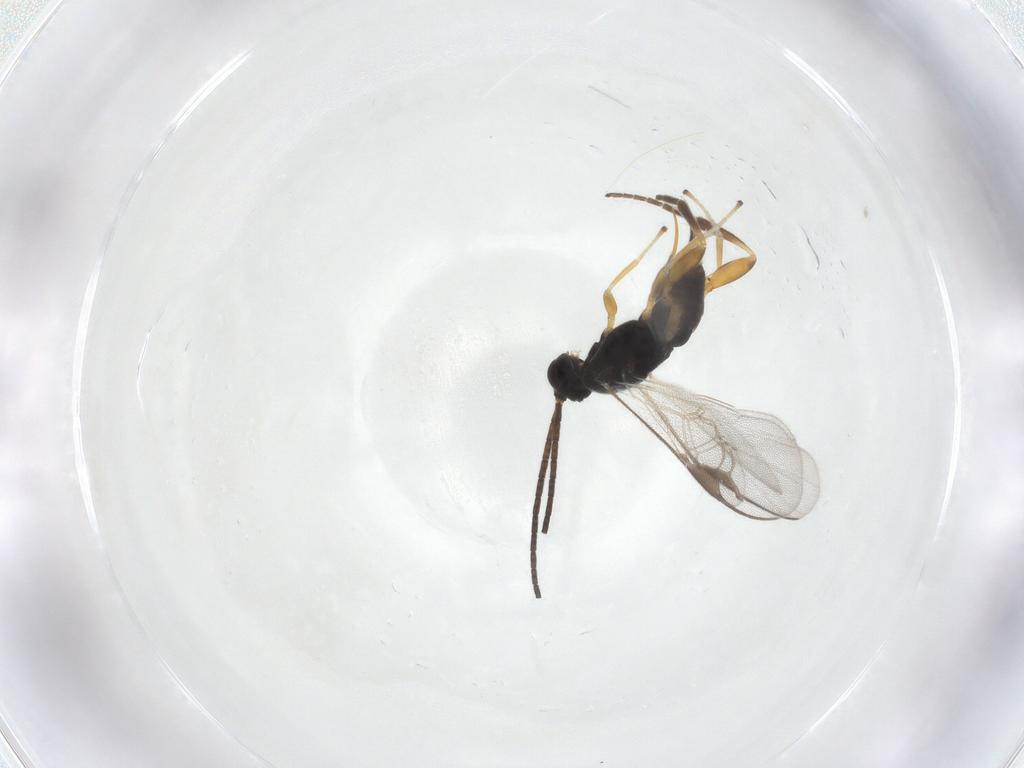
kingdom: Animalia
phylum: Arthropoda
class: Insecta
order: Hymenoptera
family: Braconidae
